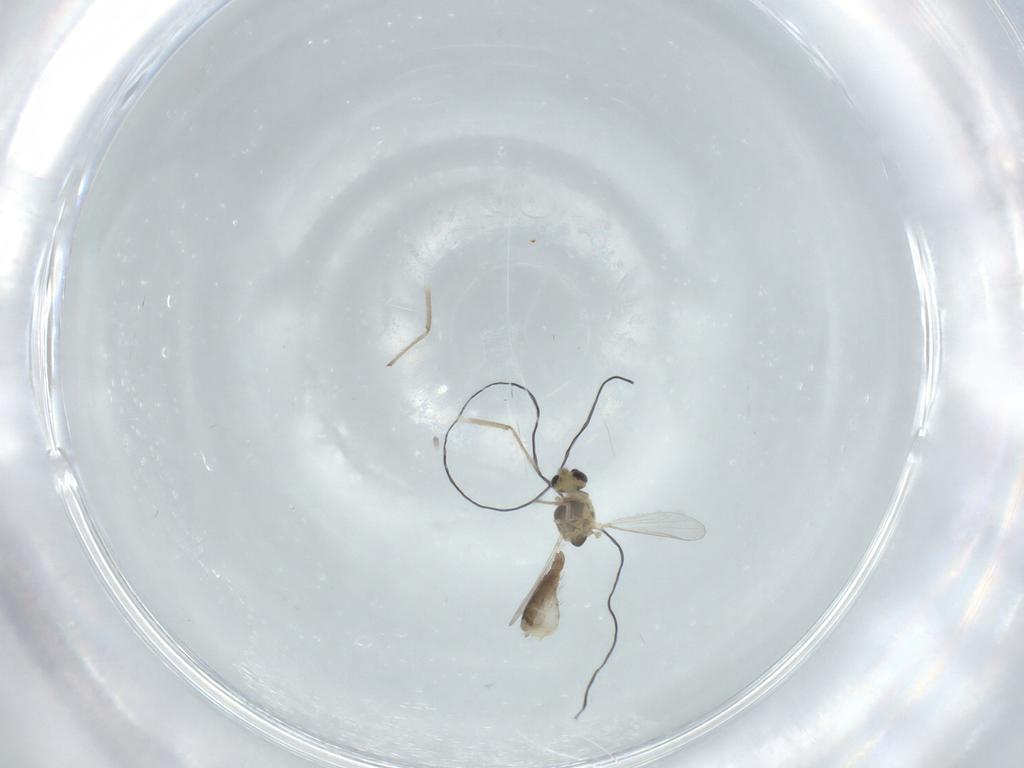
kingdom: Animalia
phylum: Arthropoda
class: Insecta
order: Diptera
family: Chironomidae
